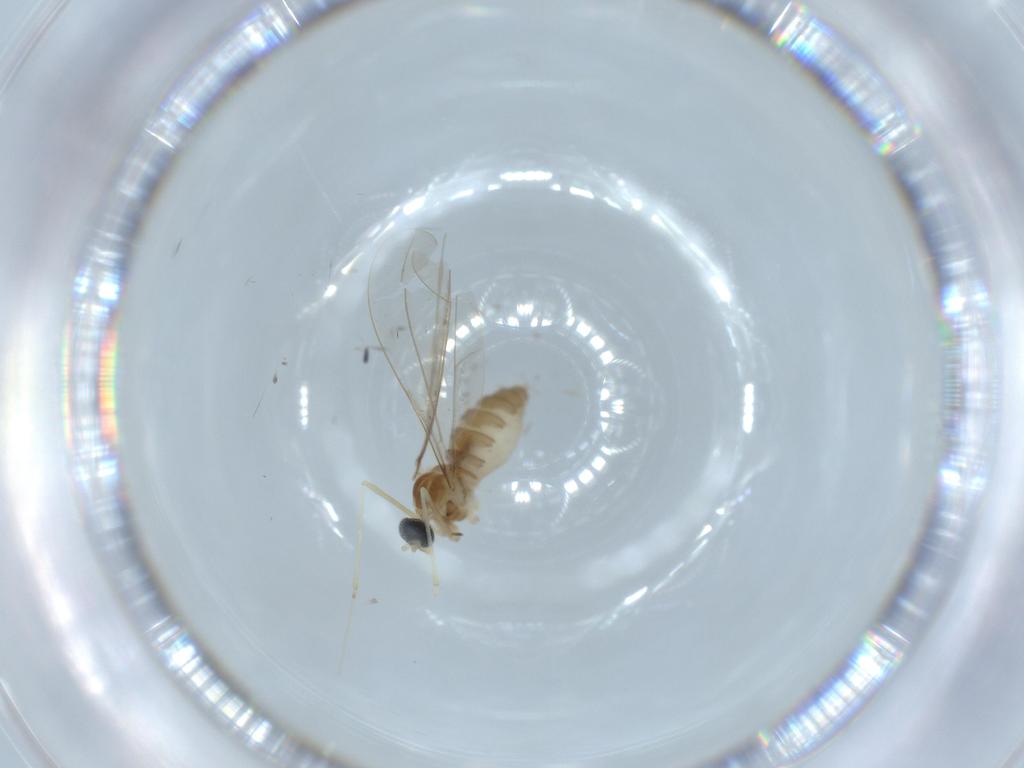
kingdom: Animalia
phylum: Arthropoda
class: Insecta
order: Diptera
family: Cecidomyiidae
